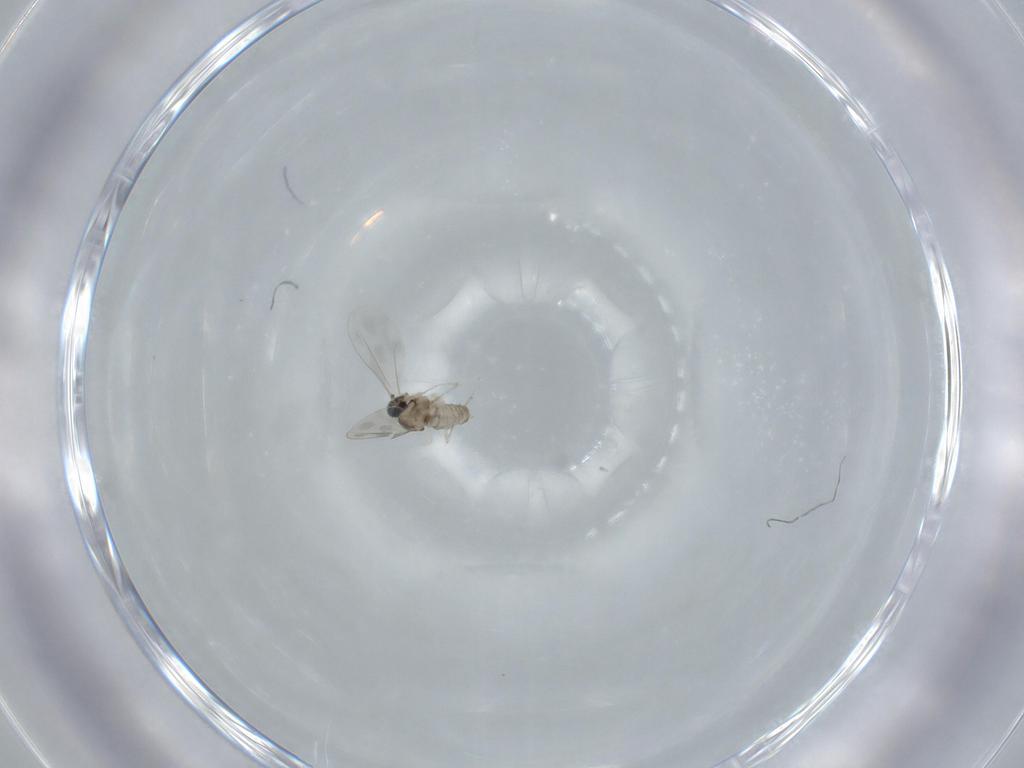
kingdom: Animalia
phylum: Arthropoda
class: Insecta
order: Diptera
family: Cecidomyiidae
